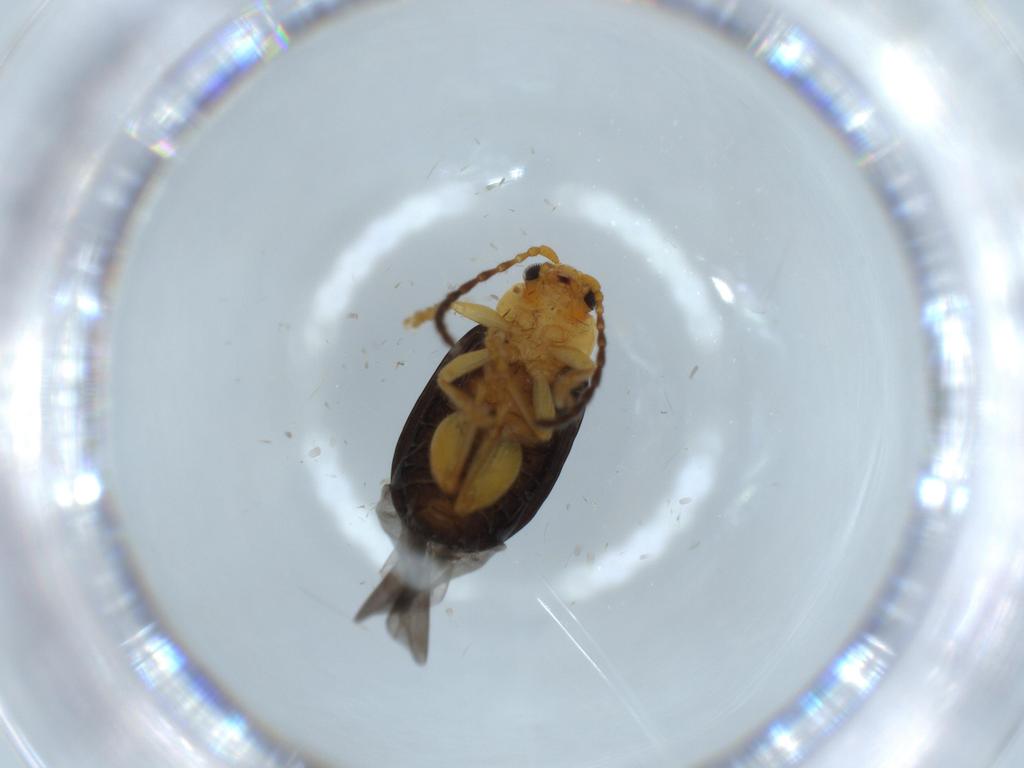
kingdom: Animalia
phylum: Arthropoda
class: Insecta
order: Coleoptera
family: Chrysomelidae
